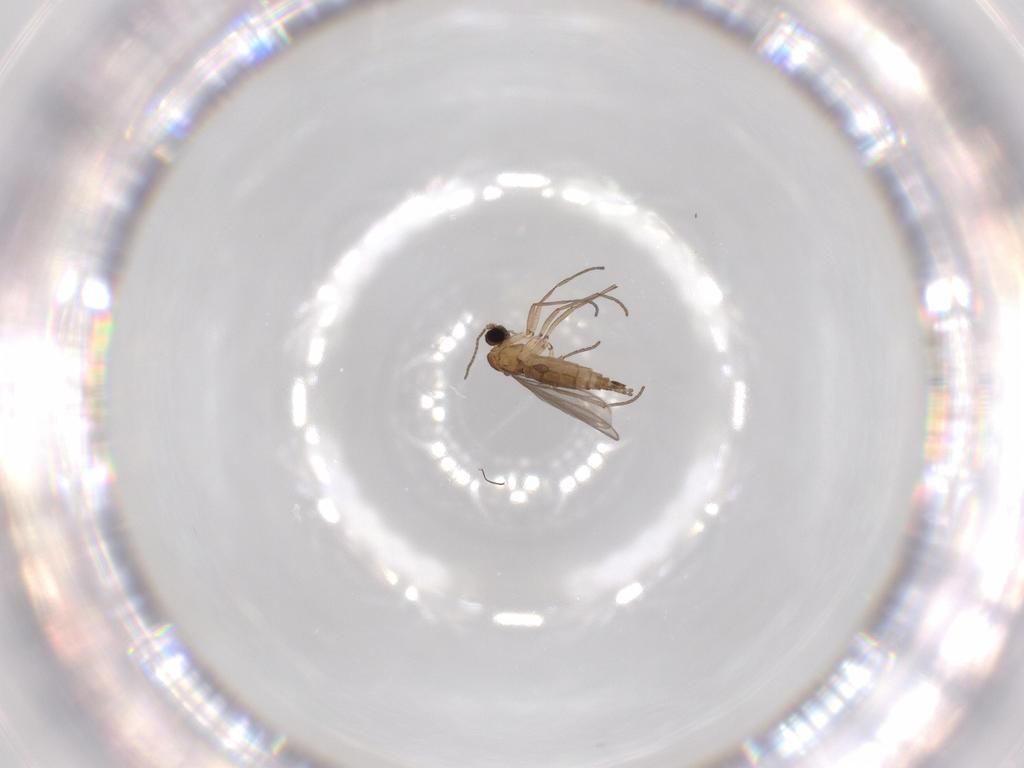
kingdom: Animalia
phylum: Arthropoda
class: Insecta
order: Diptera
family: Sciaridae
